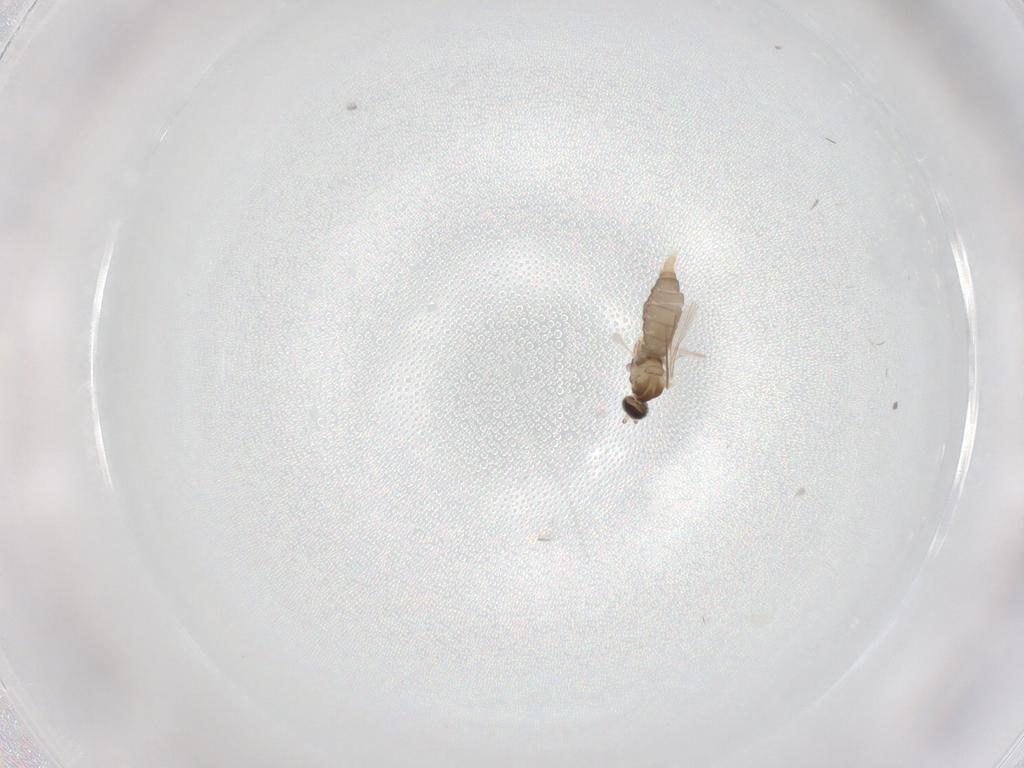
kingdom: Animalia
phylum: Arthropoda
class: Insecta
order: Diptera
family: Cecidomyiidae
